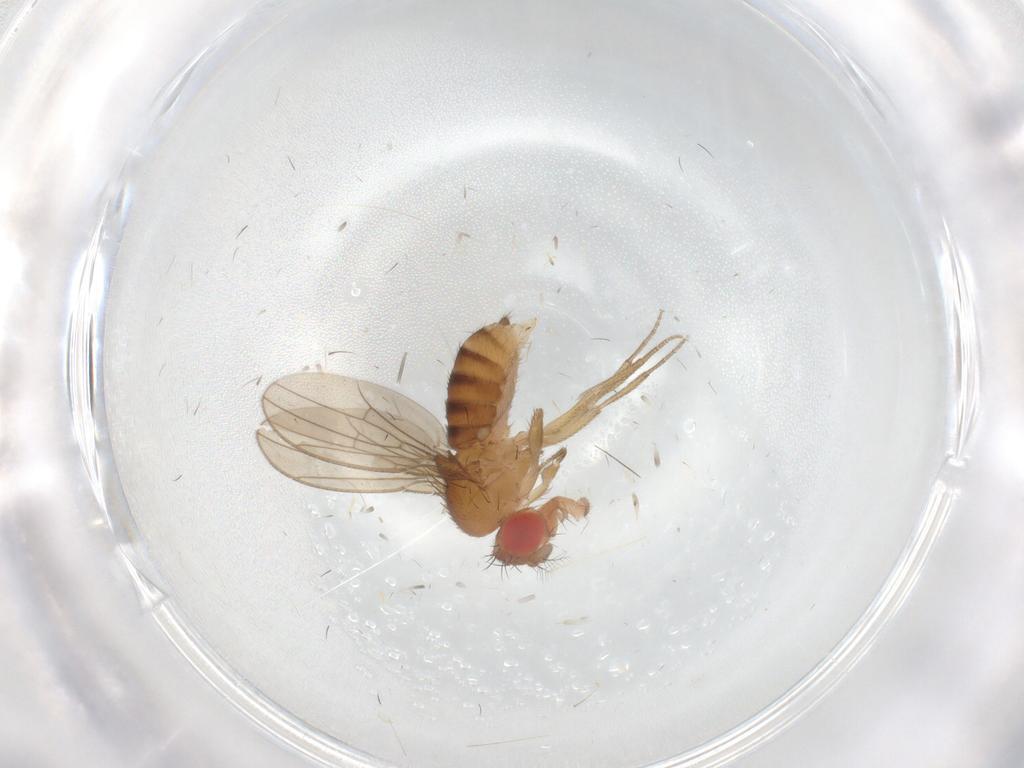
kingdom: Animalia
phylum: Arthropoda
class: Insecta
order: Diptera
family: Drosophilidae
